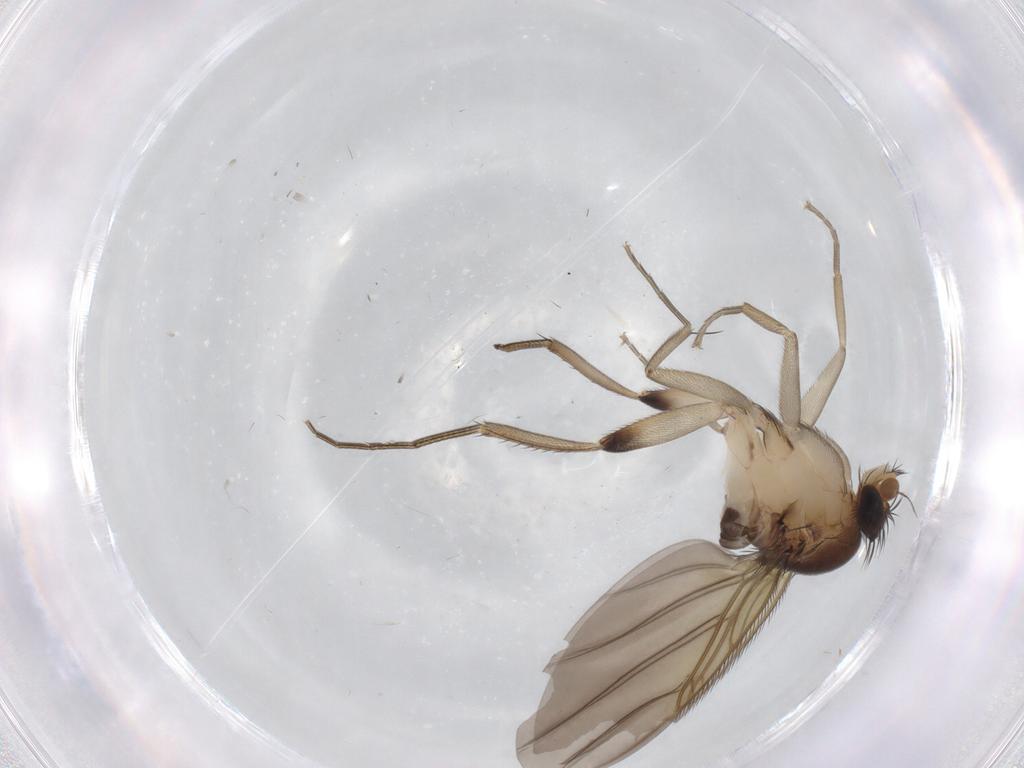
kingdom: Animalia
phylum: Arthropoda
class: Insecta
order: Diptera
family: Phoridae
